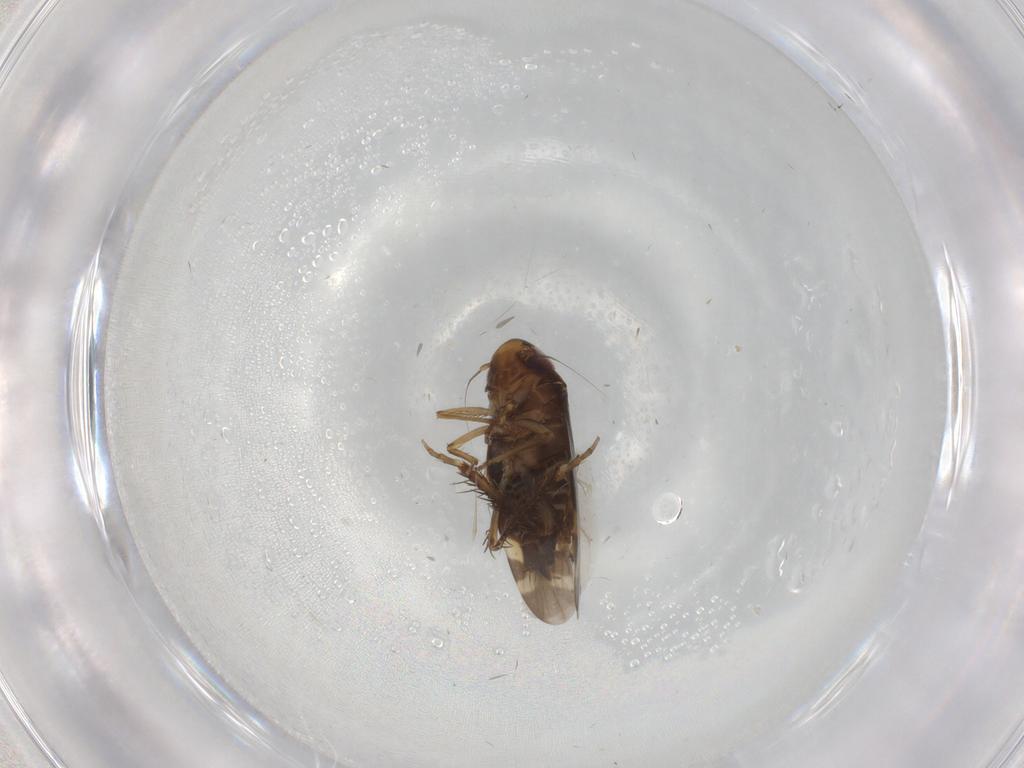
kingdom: Animalia
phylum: Arthropoda
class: Insecta
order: Hemiptera
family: Cicadellidae
